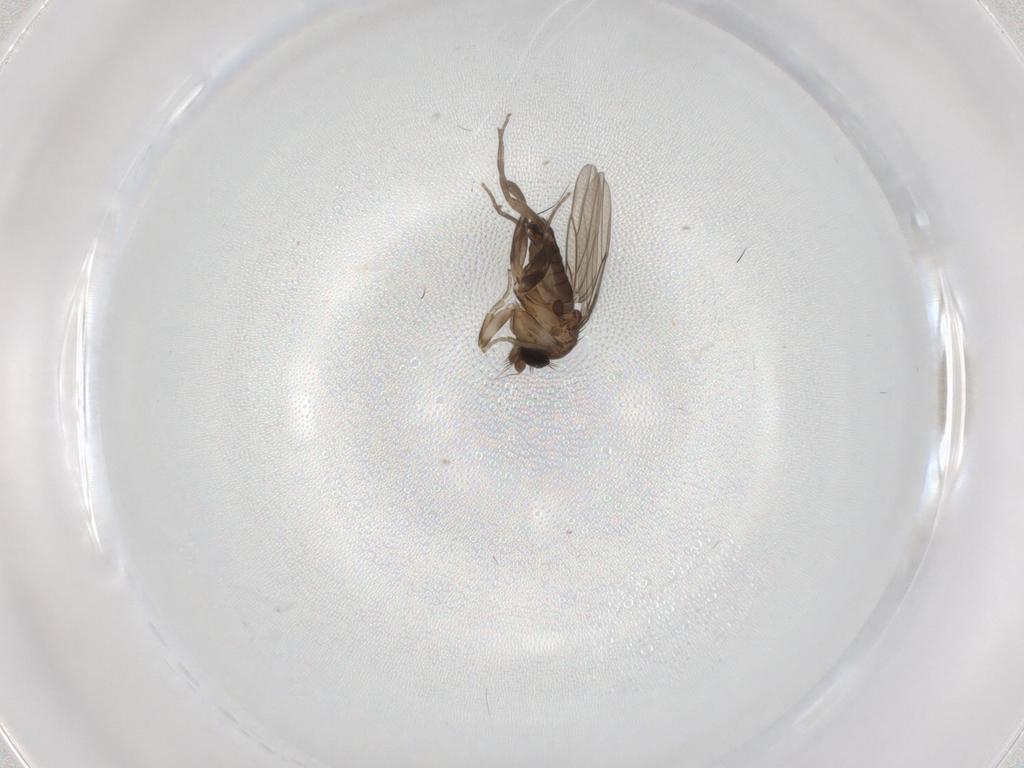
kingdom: Animalia
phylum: Arthropoda
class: Insecta
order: Diptera
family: Phoridae
